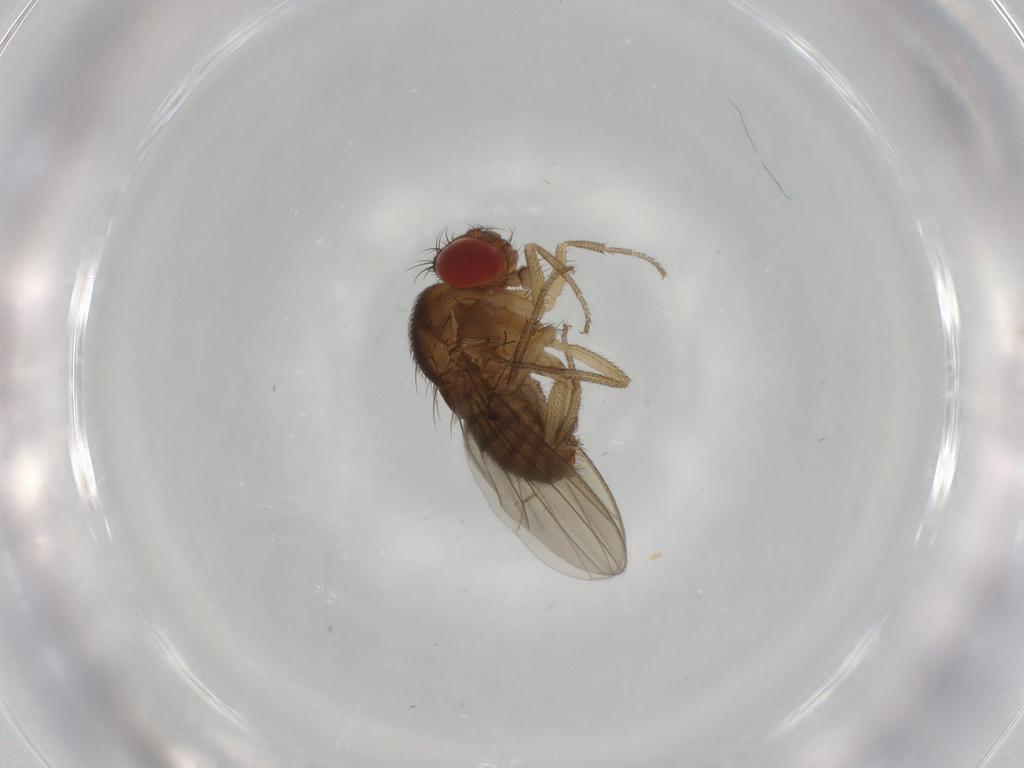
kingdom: Animalia
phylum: Arthropoda
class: Insecta
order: Diptera
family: Drosophilidae
